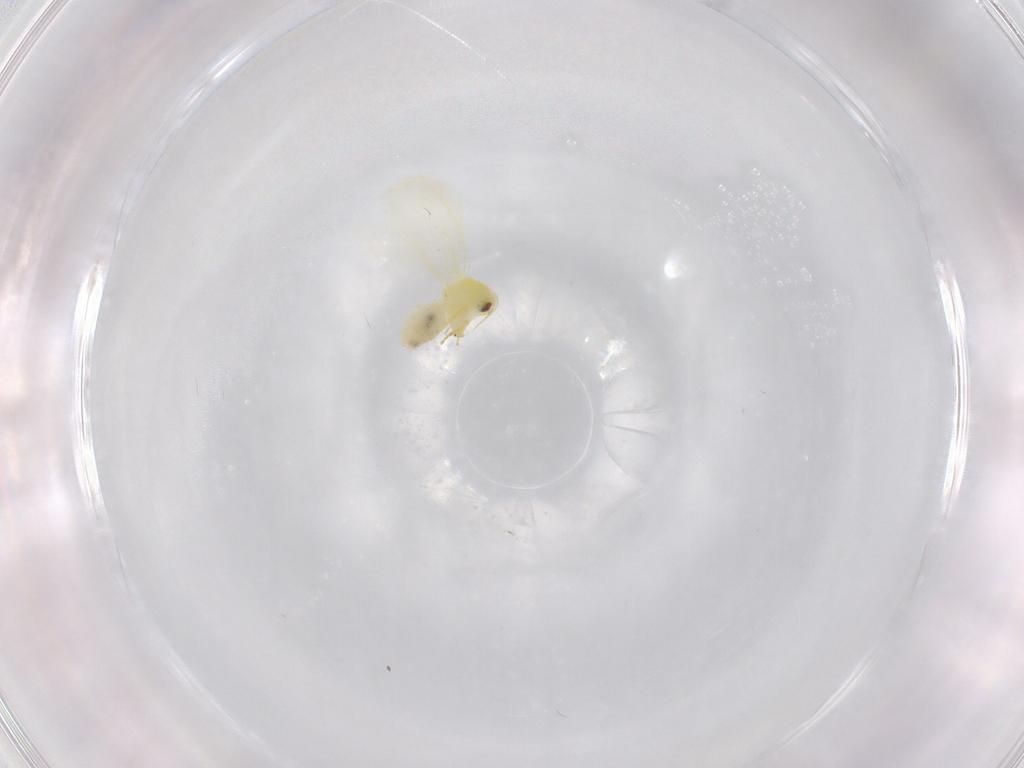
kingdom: Animalia
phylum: Arthropoda
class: Insecta
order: Hemiptera
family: Aleyrodidae
